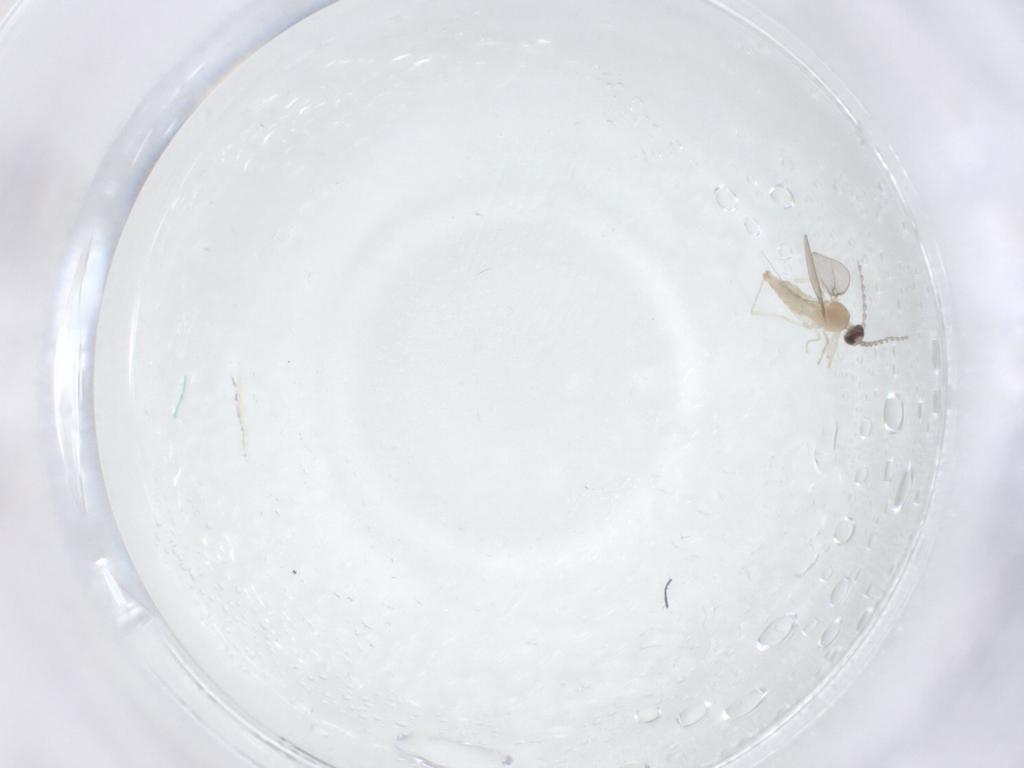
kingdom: Animalia
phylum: Arthropoda
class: Insecta
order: Diptera
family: Cecidomyiidae
